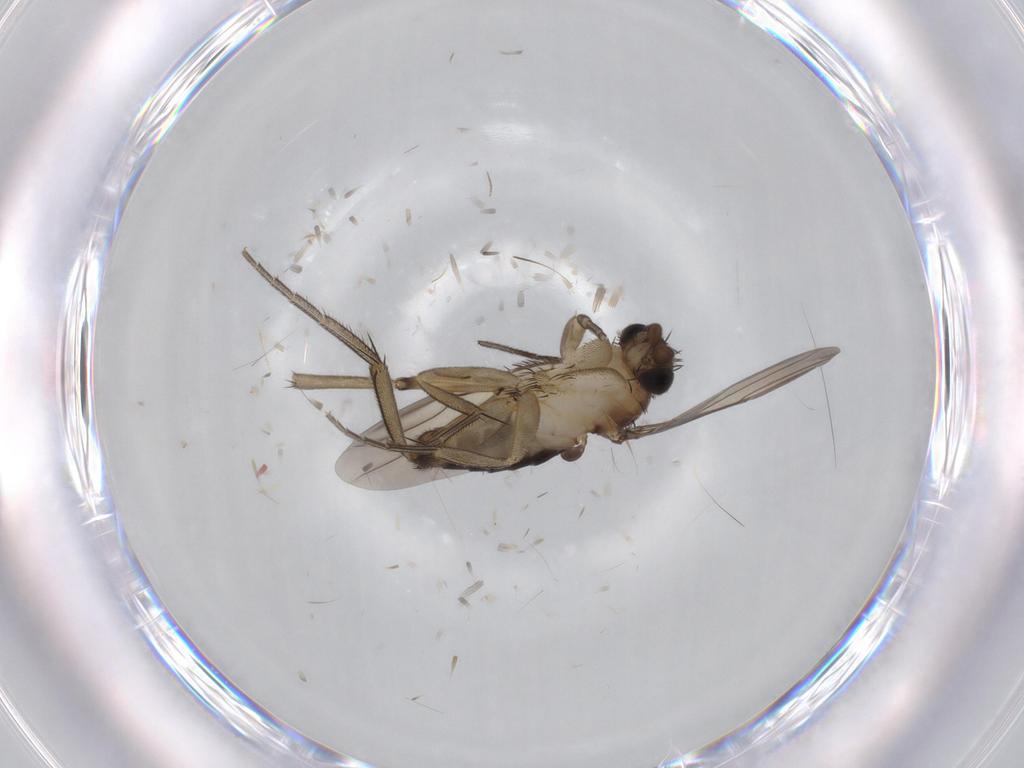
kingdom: Animalia
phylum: Arthropoda
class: Insecta
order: Diptera
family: Phoridae
